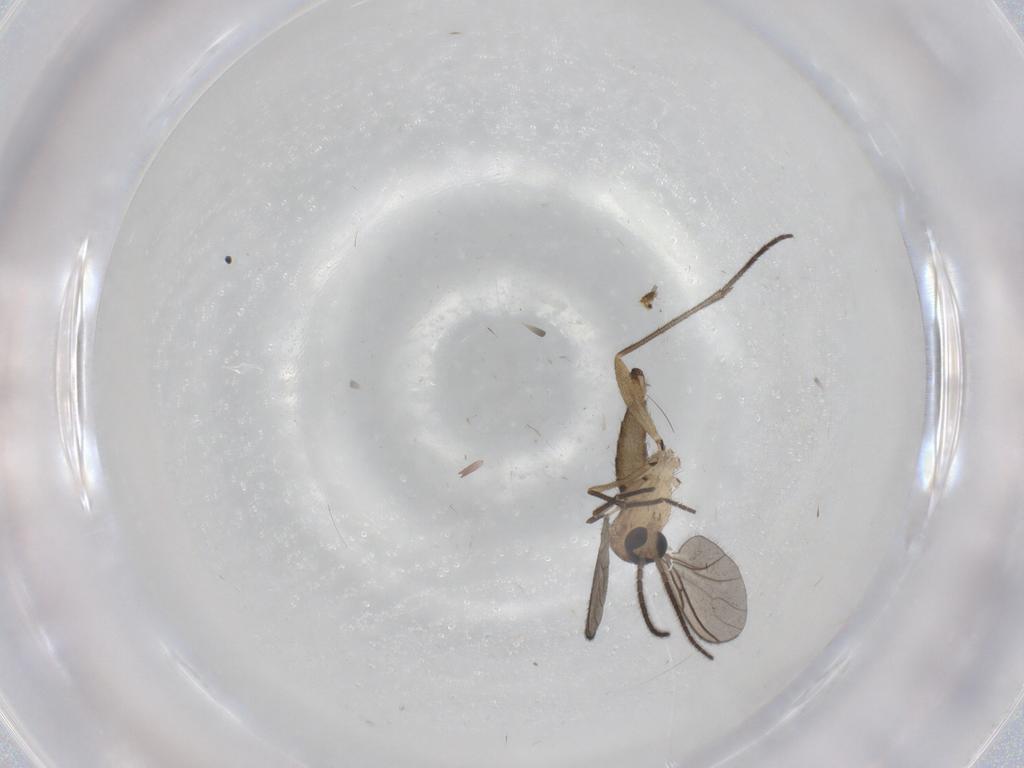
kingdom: Animalia
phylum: Arthropoda
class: Insecta
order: Diptera
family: Sciaridae
